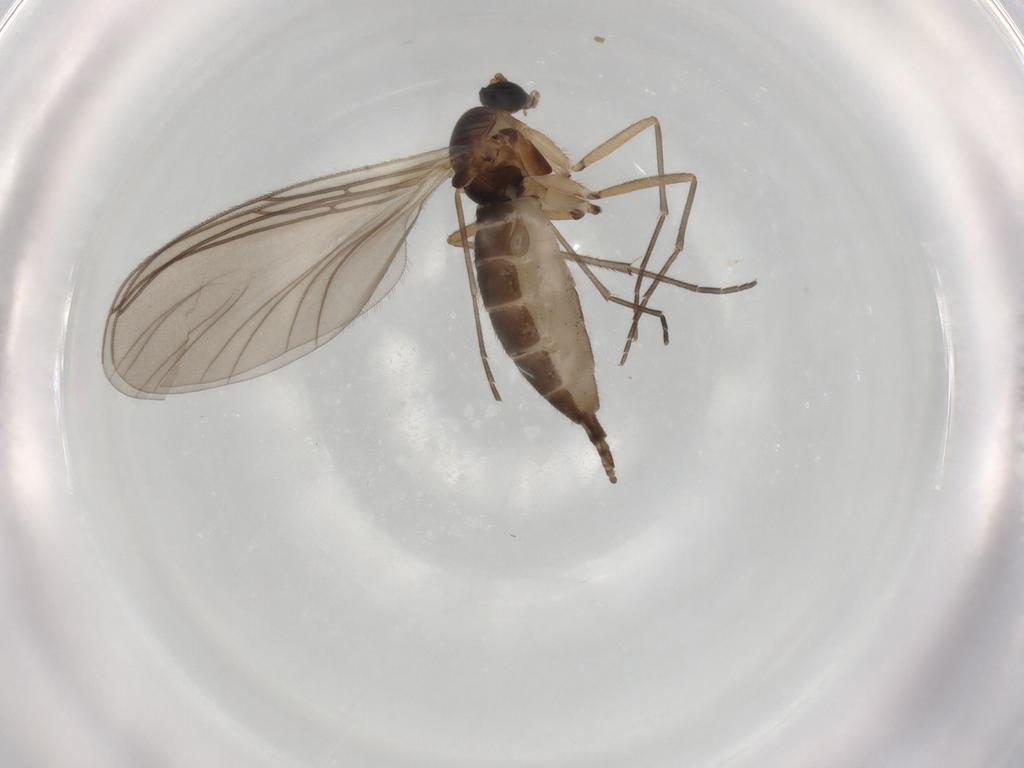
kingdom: Animalia
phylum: Arthropoda
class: Insecta
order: Diptera
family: Sciaridae
